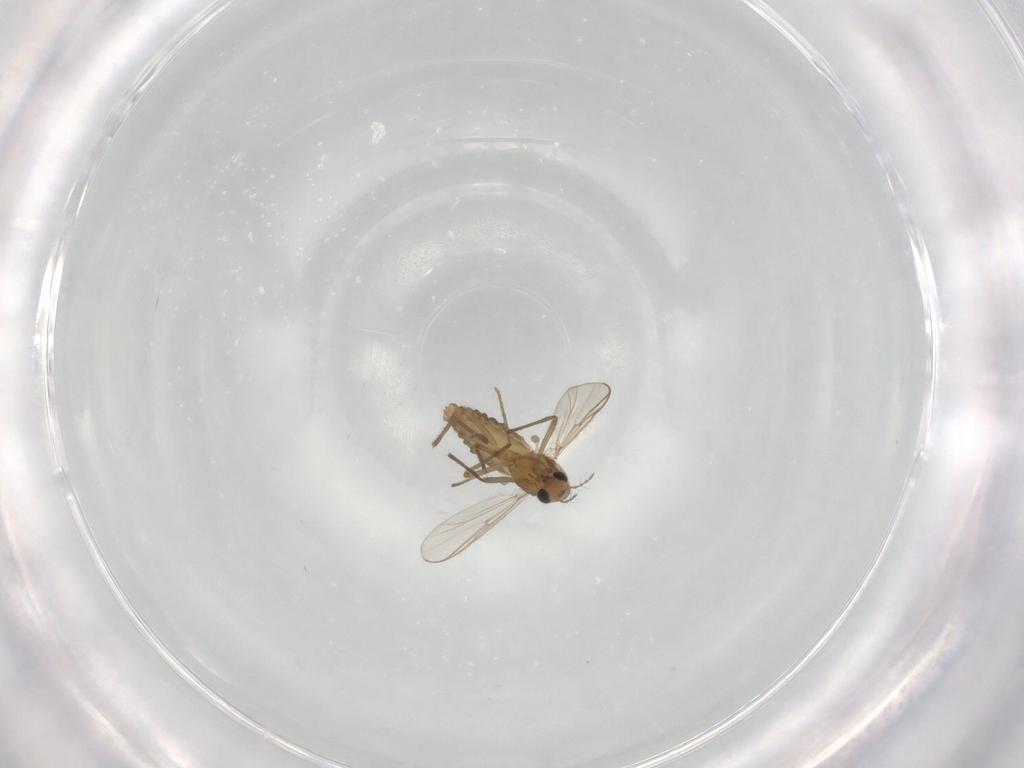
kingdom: Animalia
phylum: Arthropoda
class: Insecta
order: Diptera
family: Chironomidae
